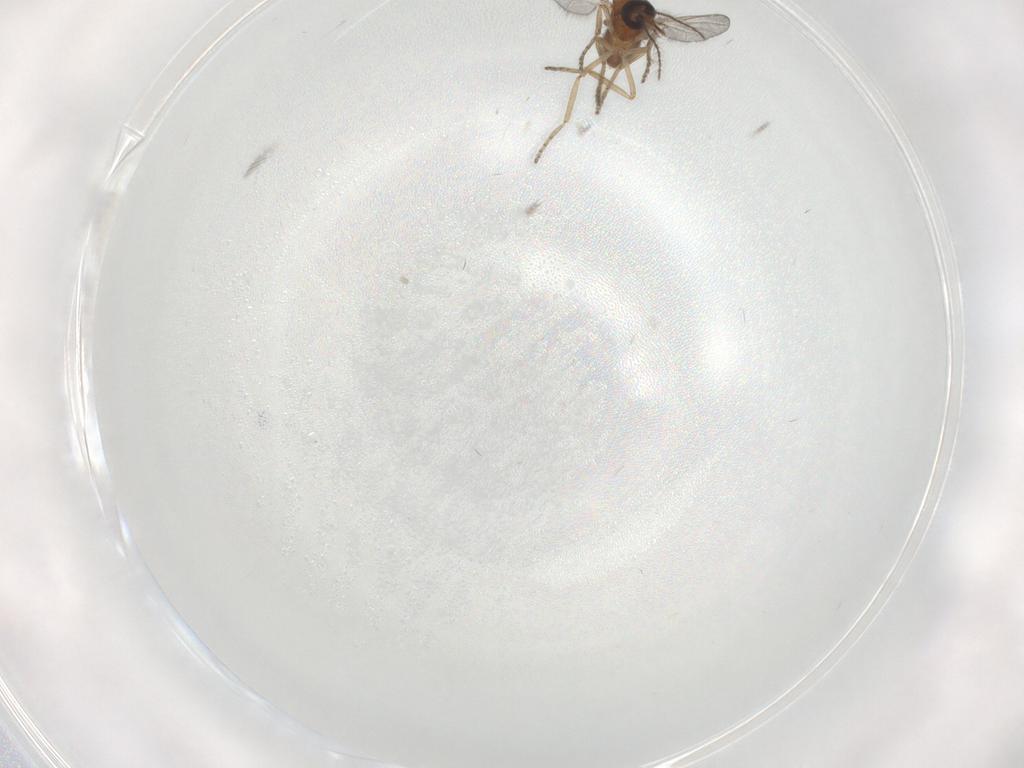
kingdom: Animalia
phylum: Arthropoda
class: Insecta
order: Diptera
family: Ceratopogonidae
